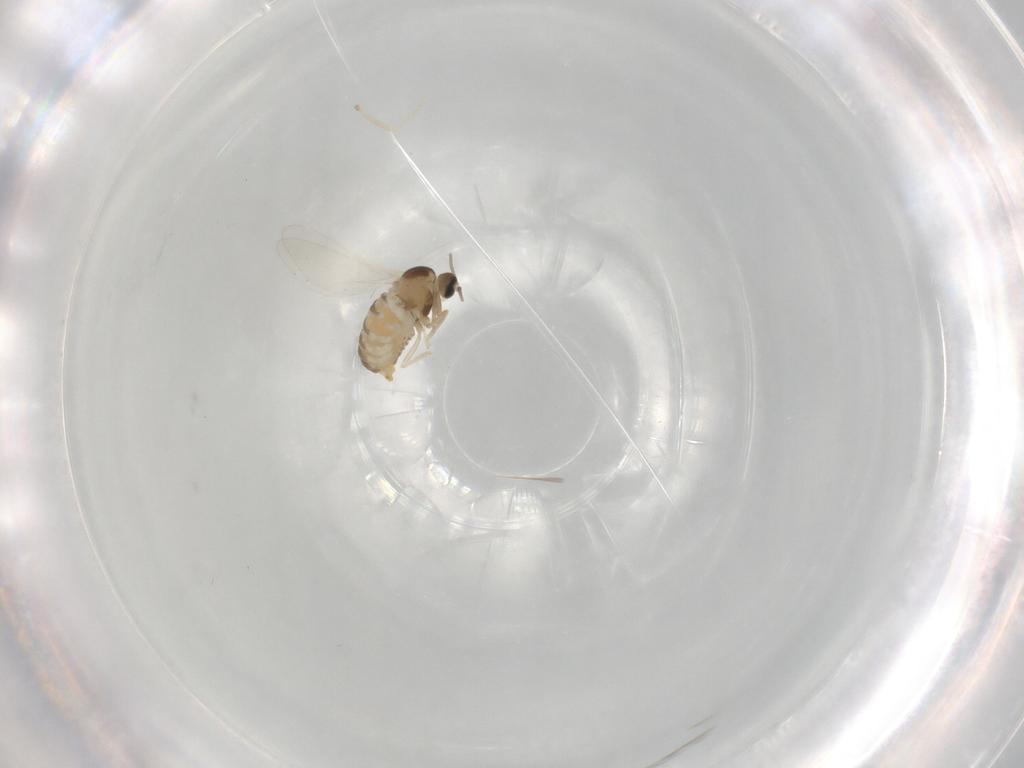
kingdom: Animalia
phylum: Arthropoda
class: Insecta
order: Diptera
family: Cecidomyiidae
